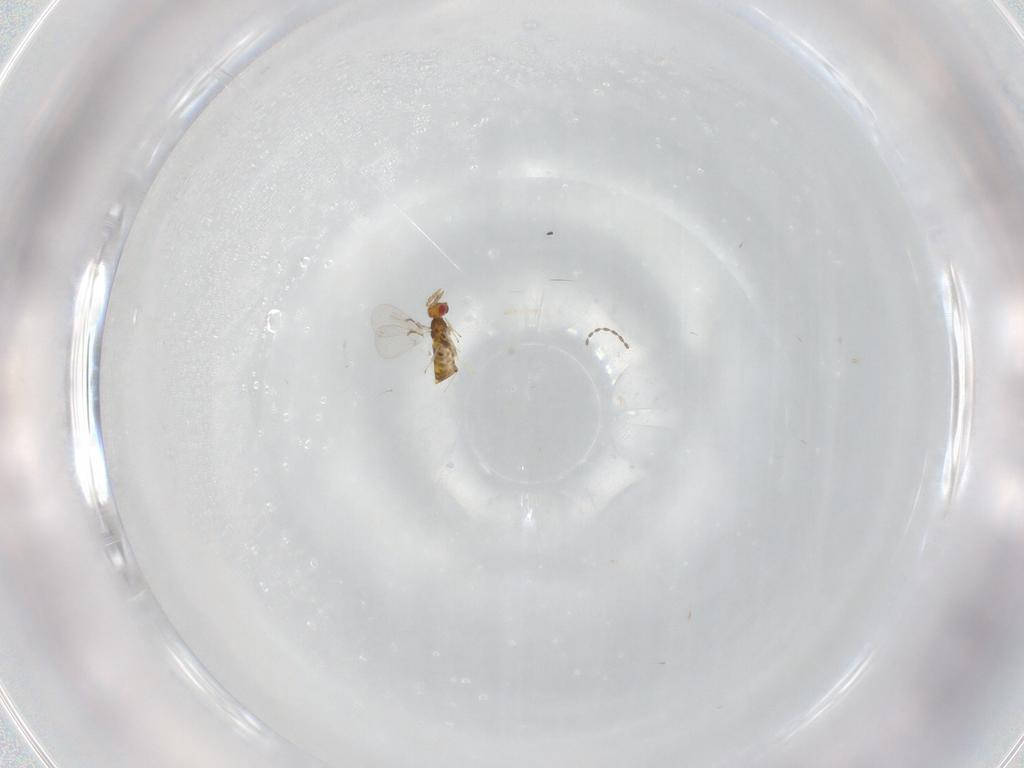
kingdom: Animalia
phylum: Arthropoda
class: Insecta
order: Hymenoptera
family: Trichogrammatidae
